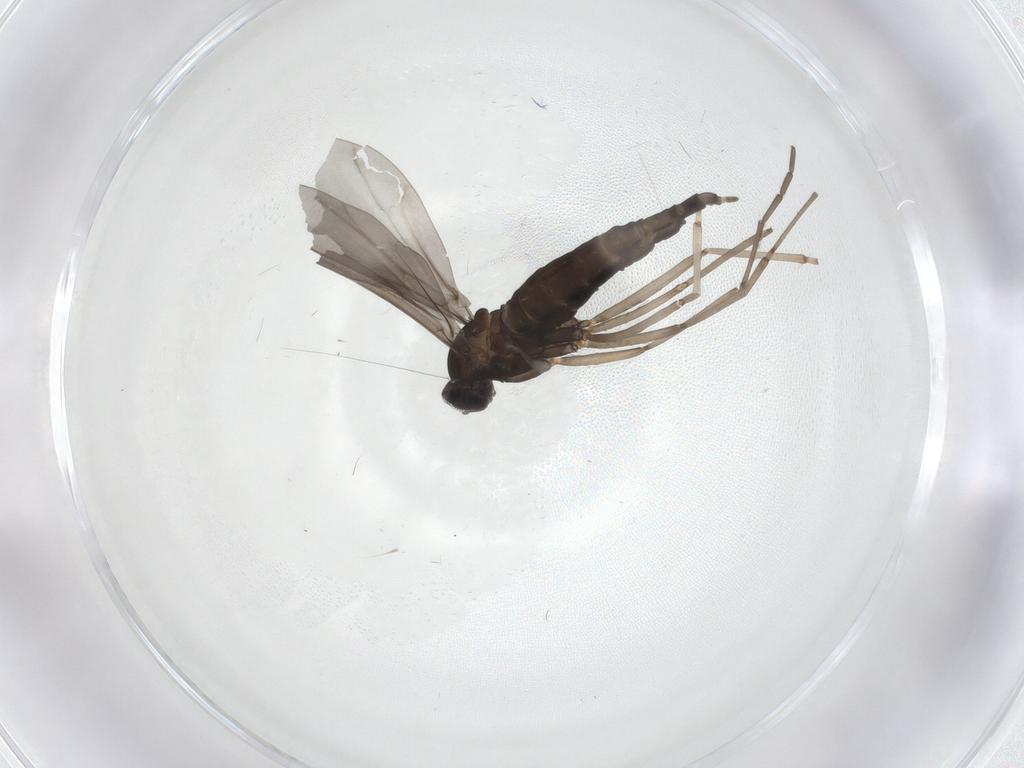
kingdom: Animalia
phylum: Arthropoda
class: Insecta
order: Diptera
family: Cecidomyiidae
